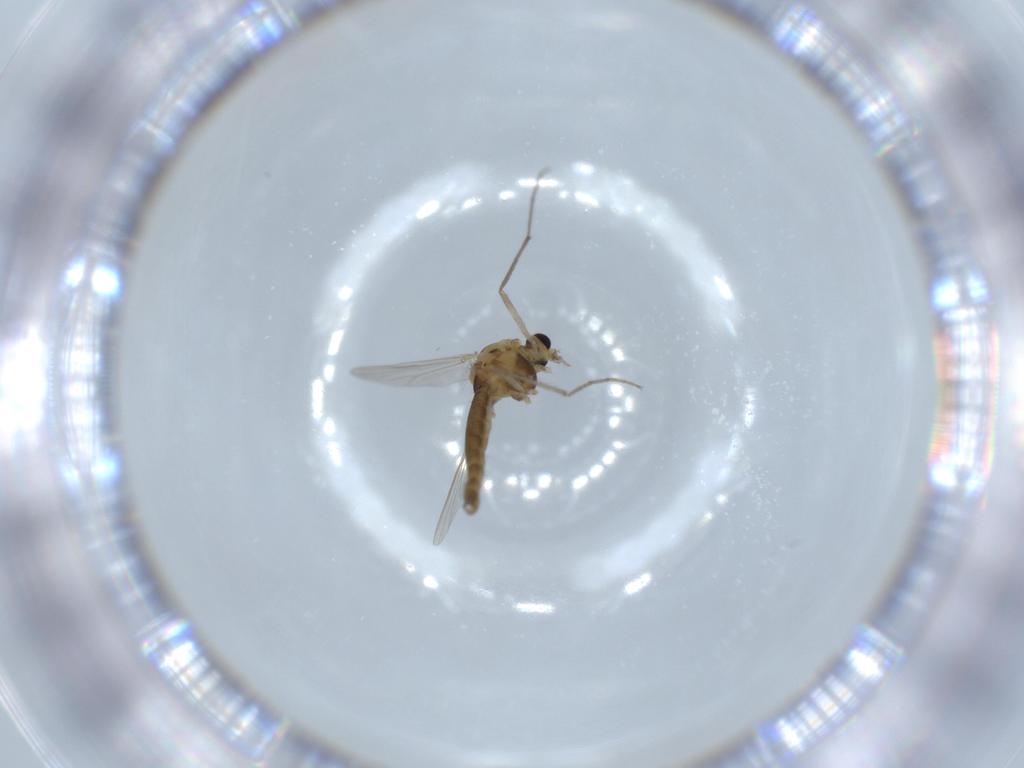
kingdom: Animalia
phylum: Arthropoda
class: Insecta
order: Diptera
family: Chironomidae
